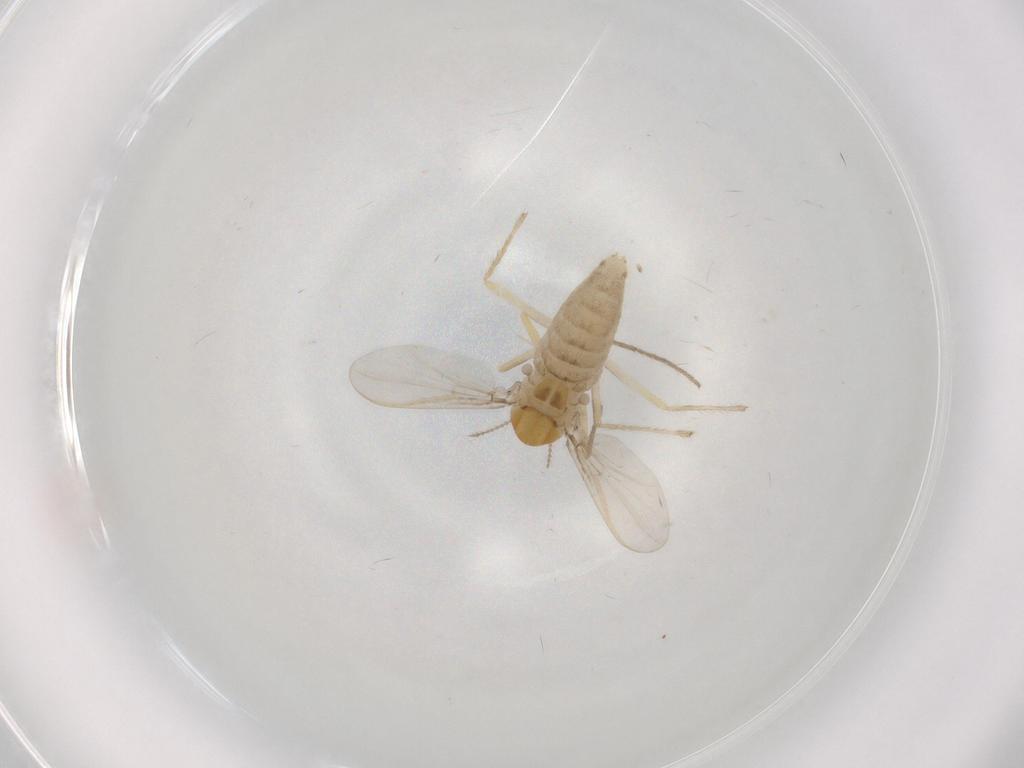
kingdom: Animalia
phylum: Arthropoda
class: Insecta
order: Diptera
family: Chironomidae
